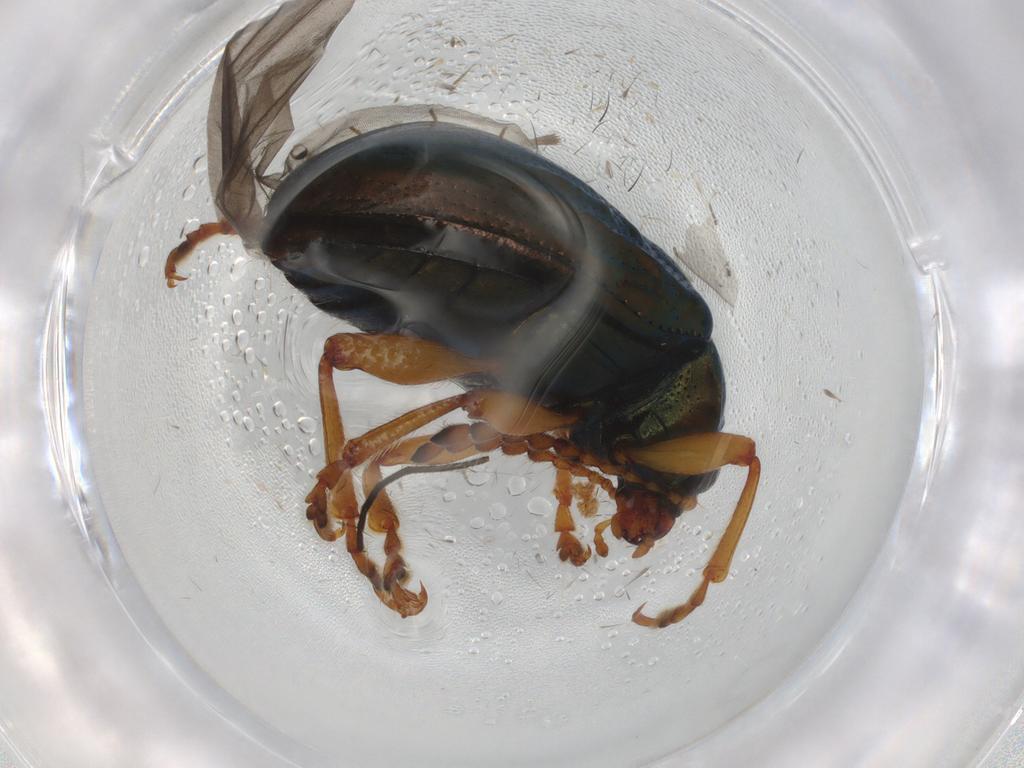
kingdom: Animalia
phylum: Arthropoda
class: Insecta
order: Coleoptera
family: Chrysomelidae
